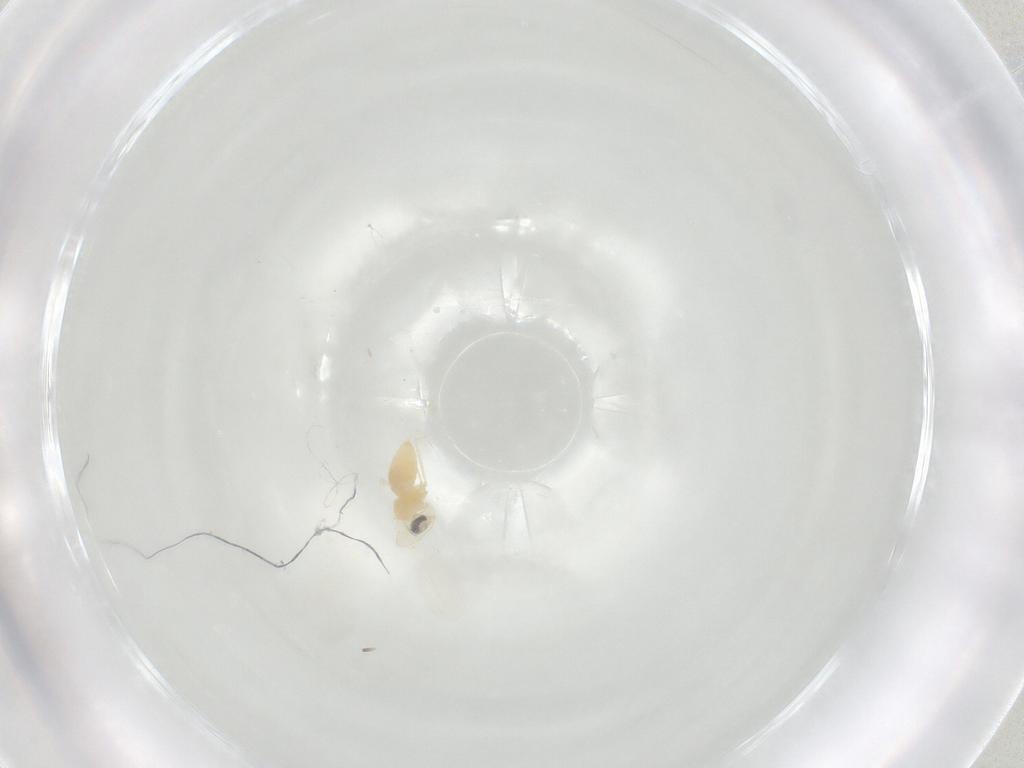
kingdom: Animalia
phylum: Arthropoda
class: Insecta
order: Diptera
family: Cecidomyiidae
